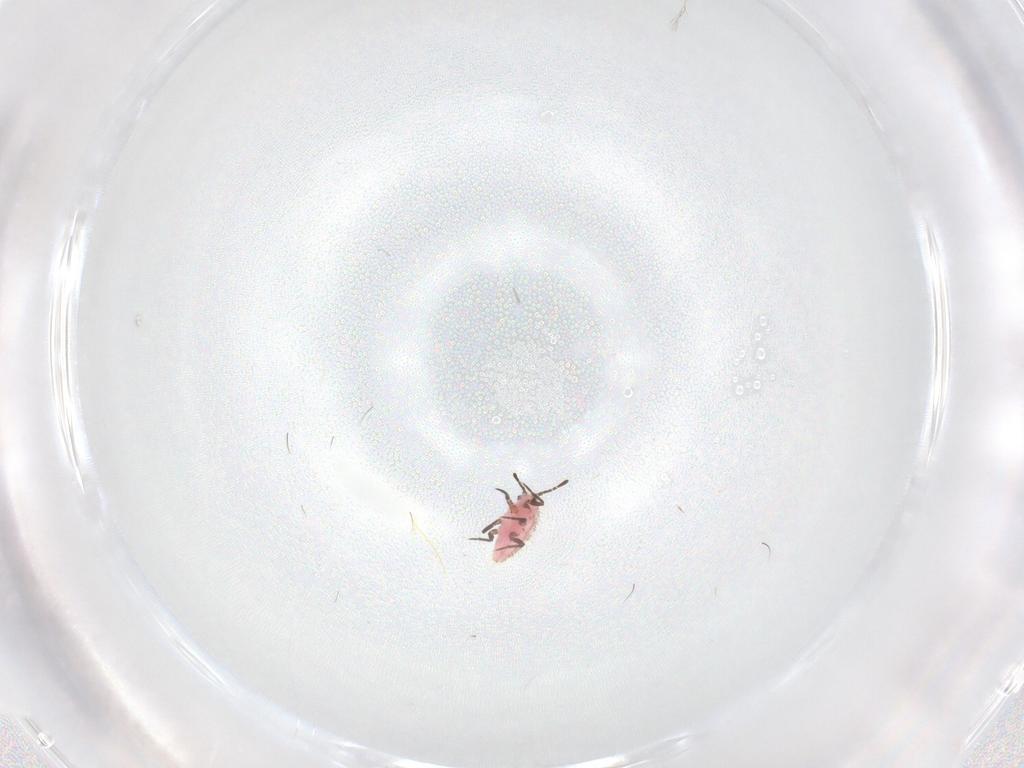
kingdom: Animalia
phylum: Arthropoda
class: Insecta
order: Hemiptera
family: Monophlebidae
